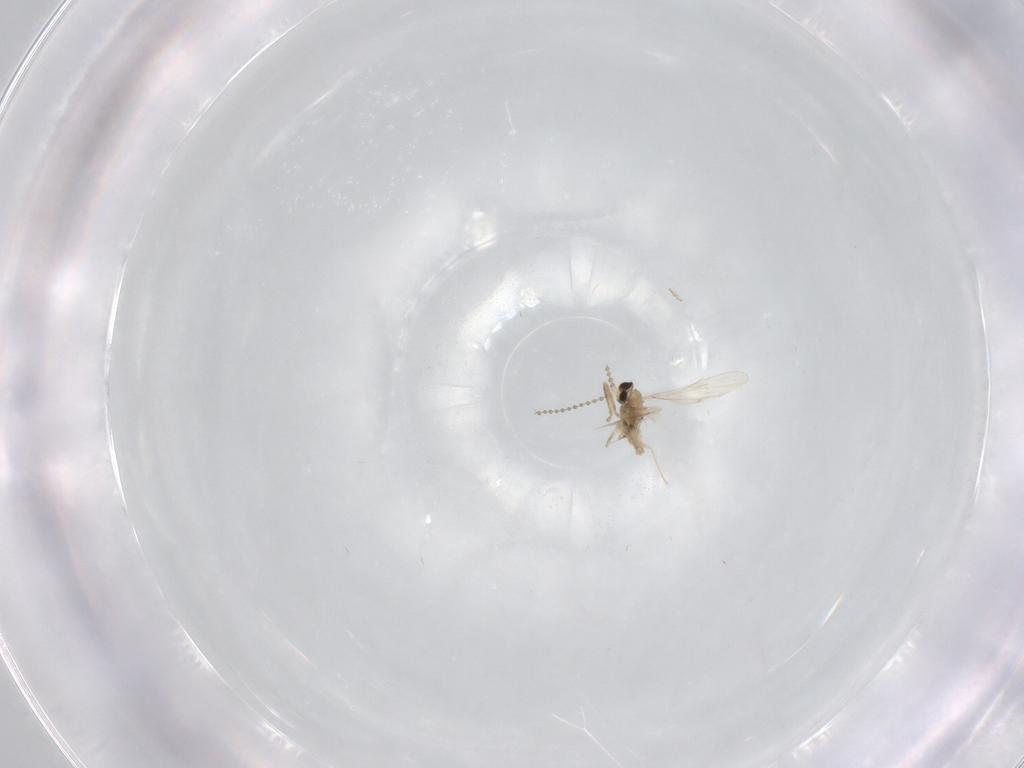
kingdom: Animalia
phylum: Arthropoda
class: Insecta
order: Diptera
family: Cecidomyiidae
